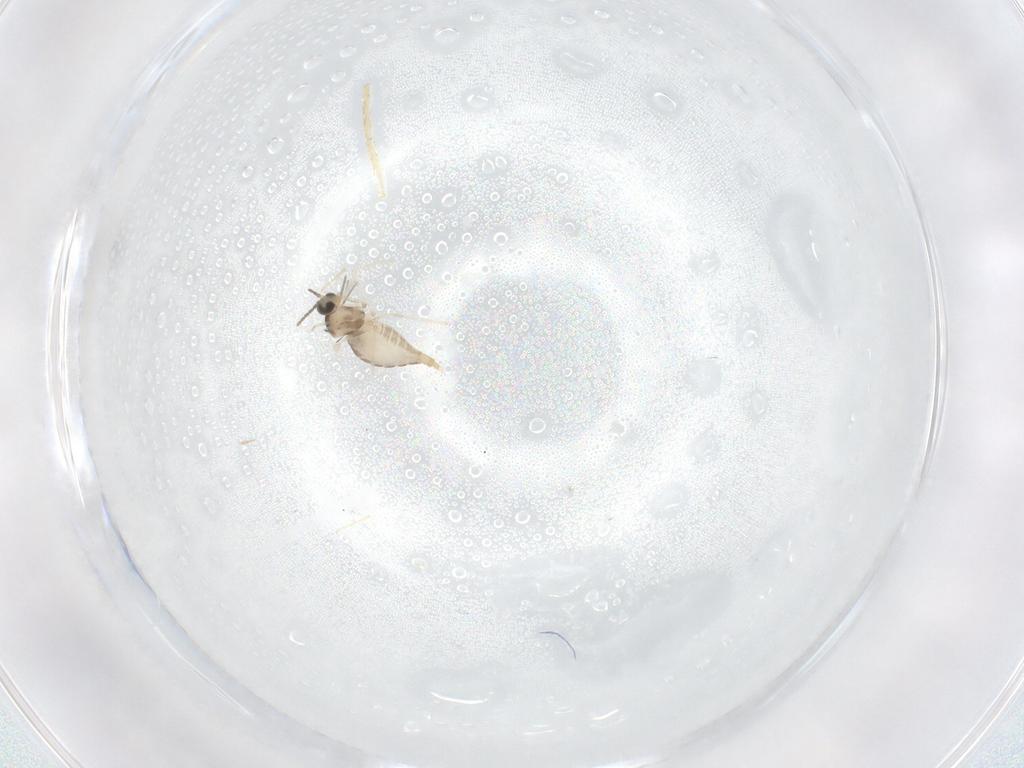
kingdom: Animalia
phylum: Arthropoda
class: Insecta
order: Diptera
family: Cecidomyiidae
